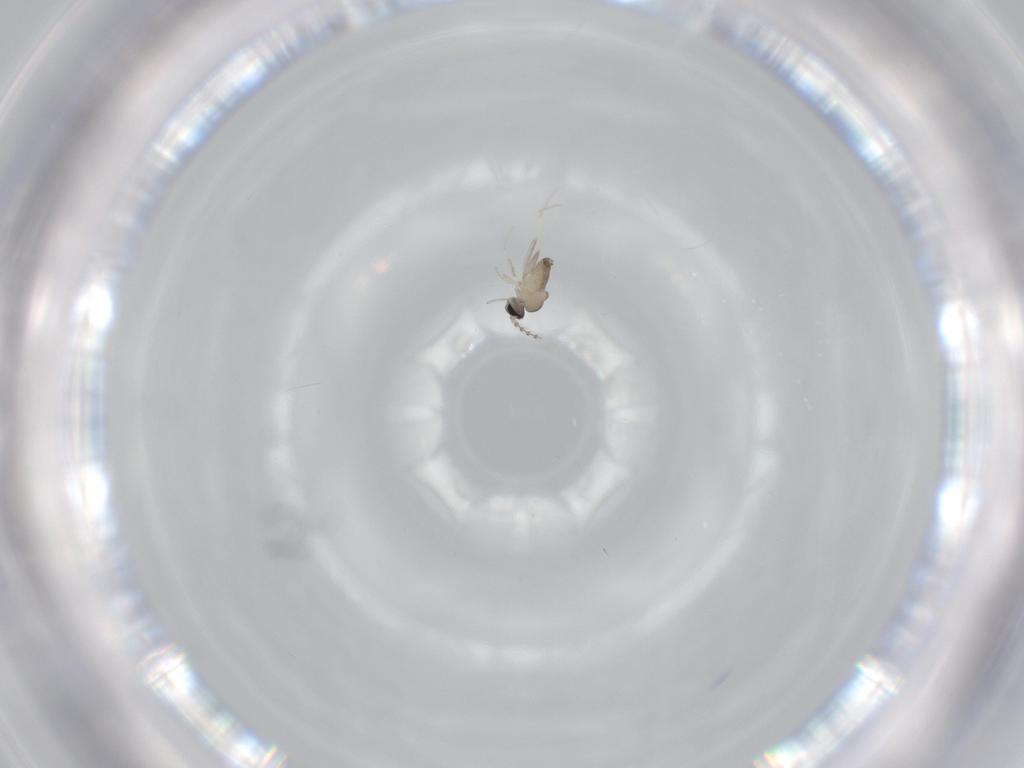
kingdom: Animalia
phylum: Arthropoda
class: Insecta
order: Diptera
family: Cecidomyiidae
